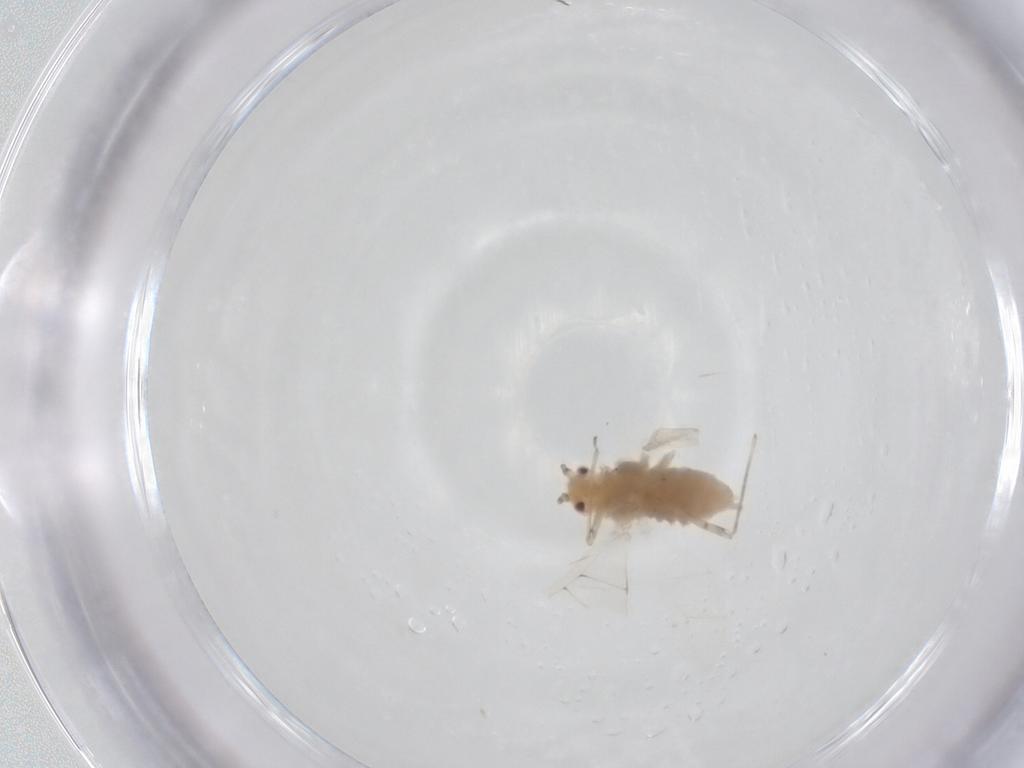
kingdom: Animalia
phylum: Arthropoda
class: Insecta
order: Hemiptera
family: Aphididae
